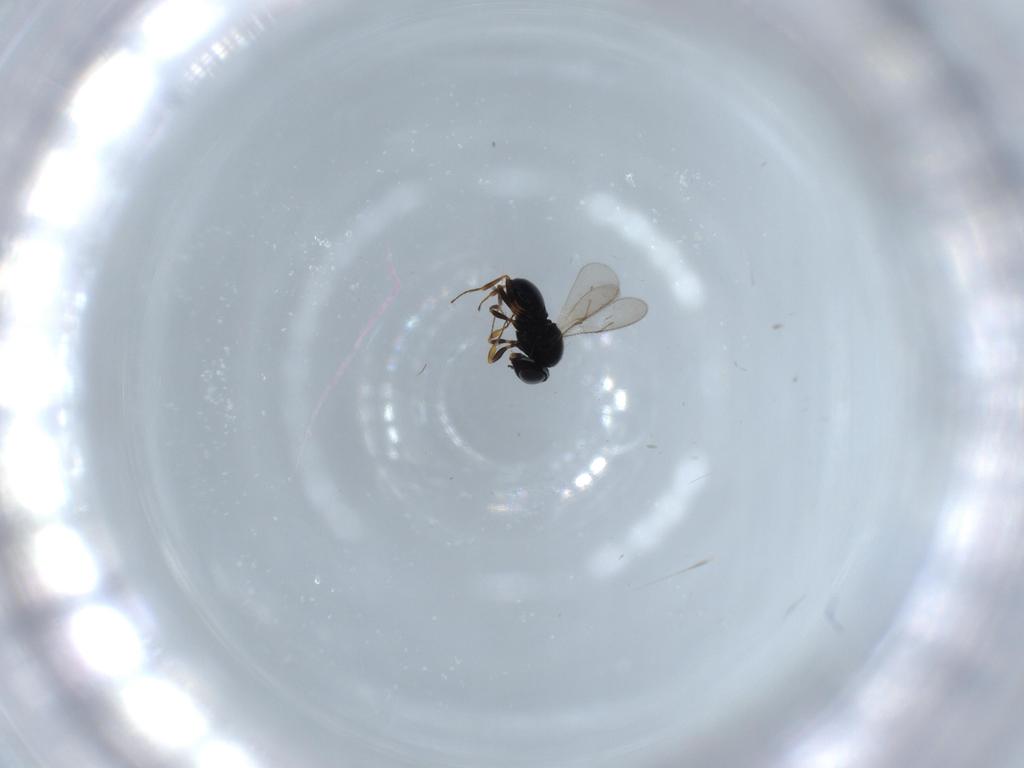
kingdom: Animalia
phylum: Arthropoda
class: Insecta
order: Hymenoptera
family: Scelionidae
